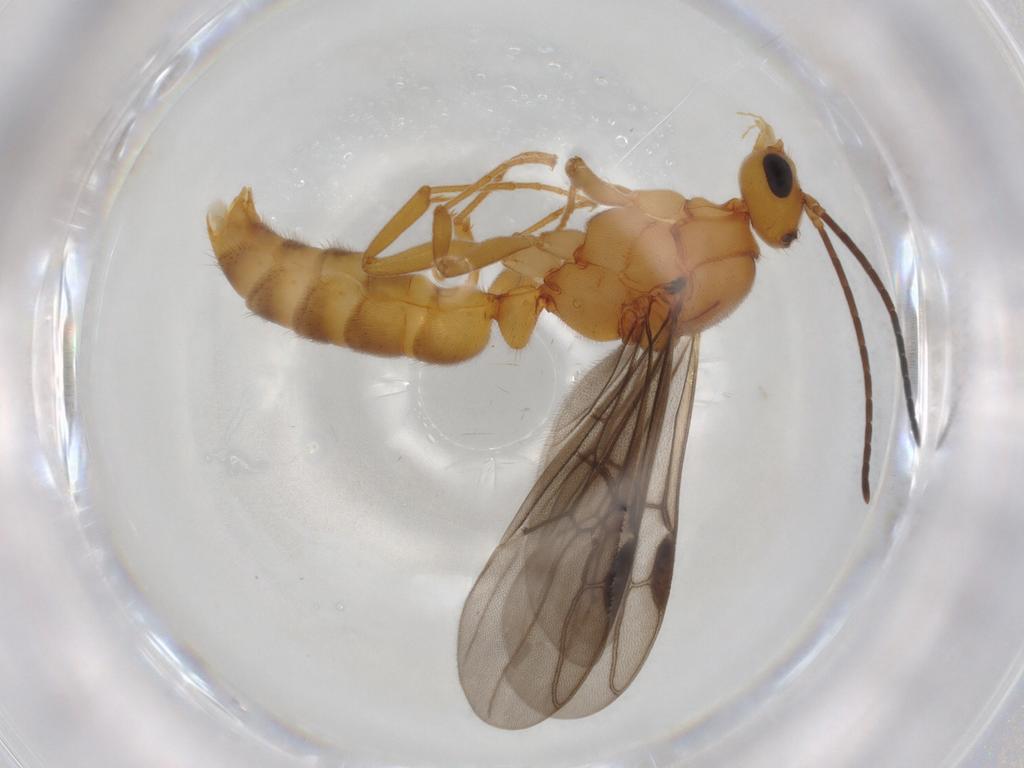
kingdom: Animalia
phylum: Arthropoda
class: Insecta
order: Hymenoptera
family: Formicidae
